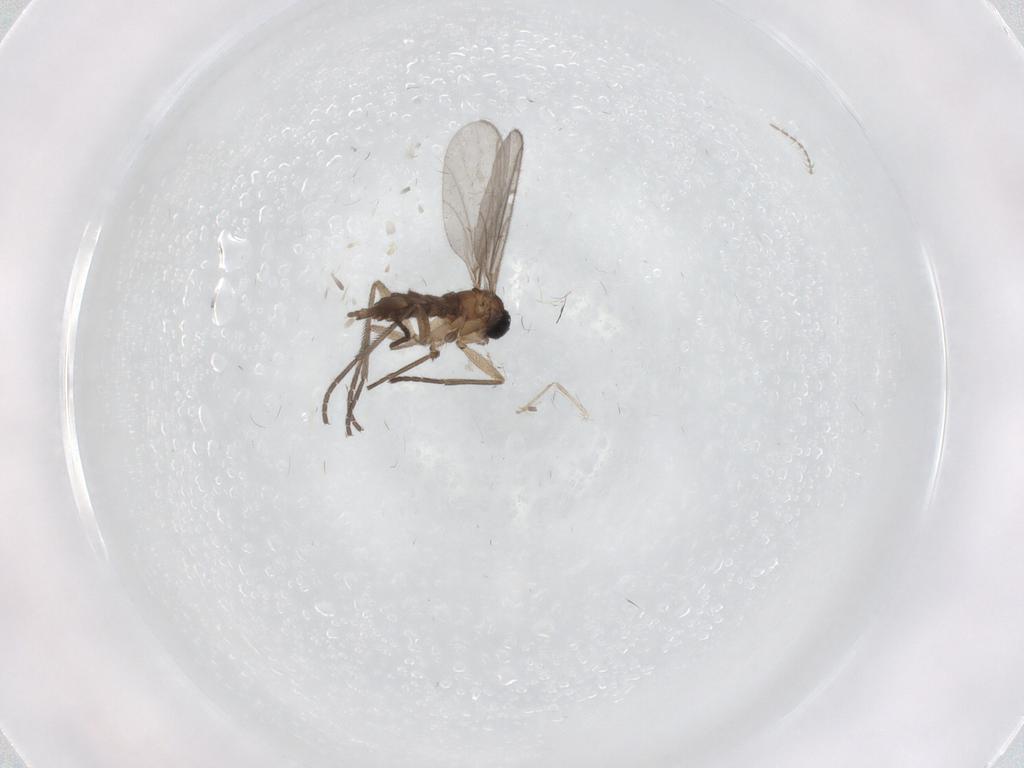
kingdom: Animalia
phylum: Arthropoda
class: Insecta
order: Diptera
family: Sciaridae
